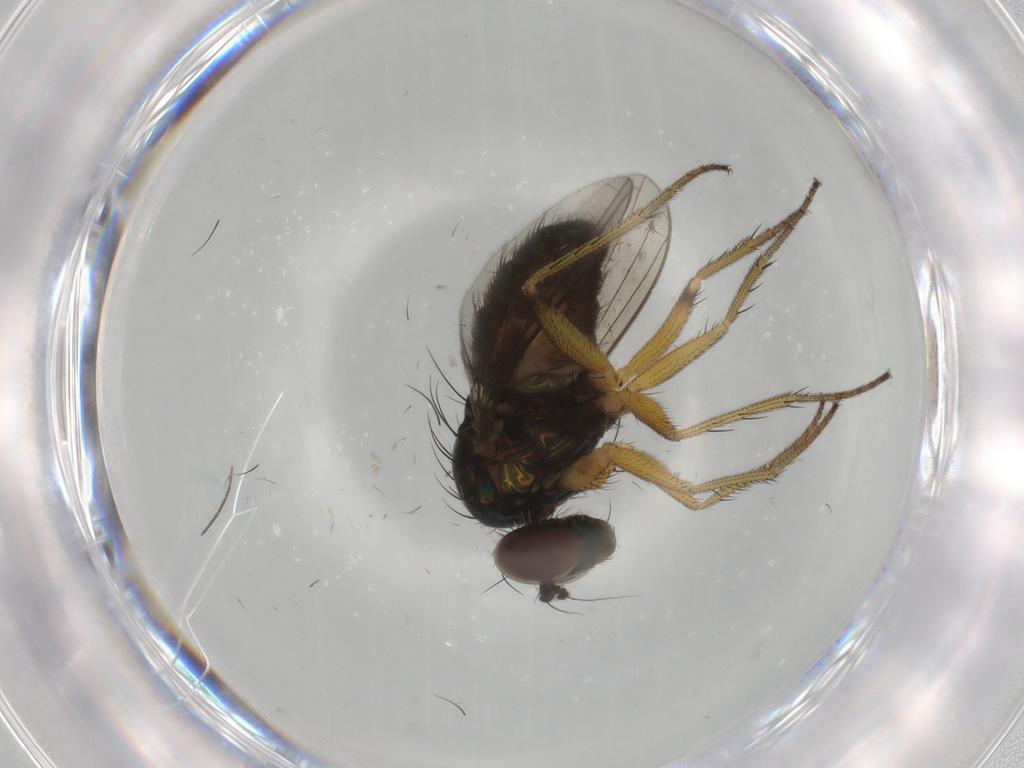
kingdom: Animalia
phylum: Arthropoda
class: Insecta
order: Diptera
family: Dolichopodidae
